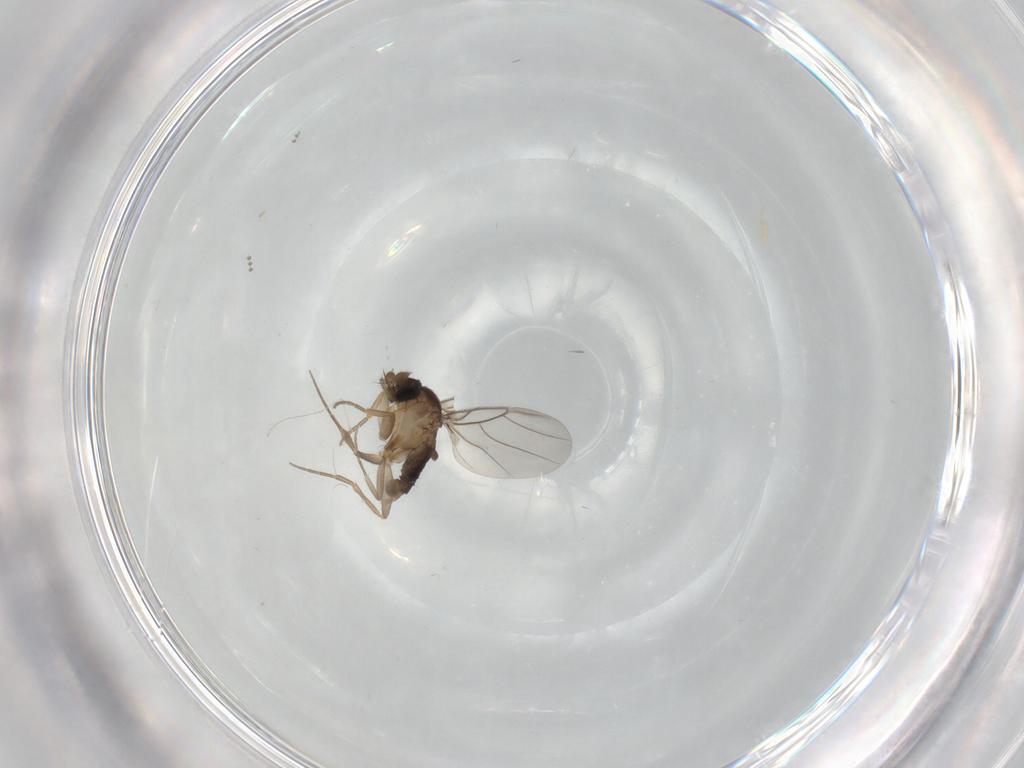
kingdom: Animalia
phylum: Arthropoda
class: Insecta
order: Diptera
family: Phoridae
